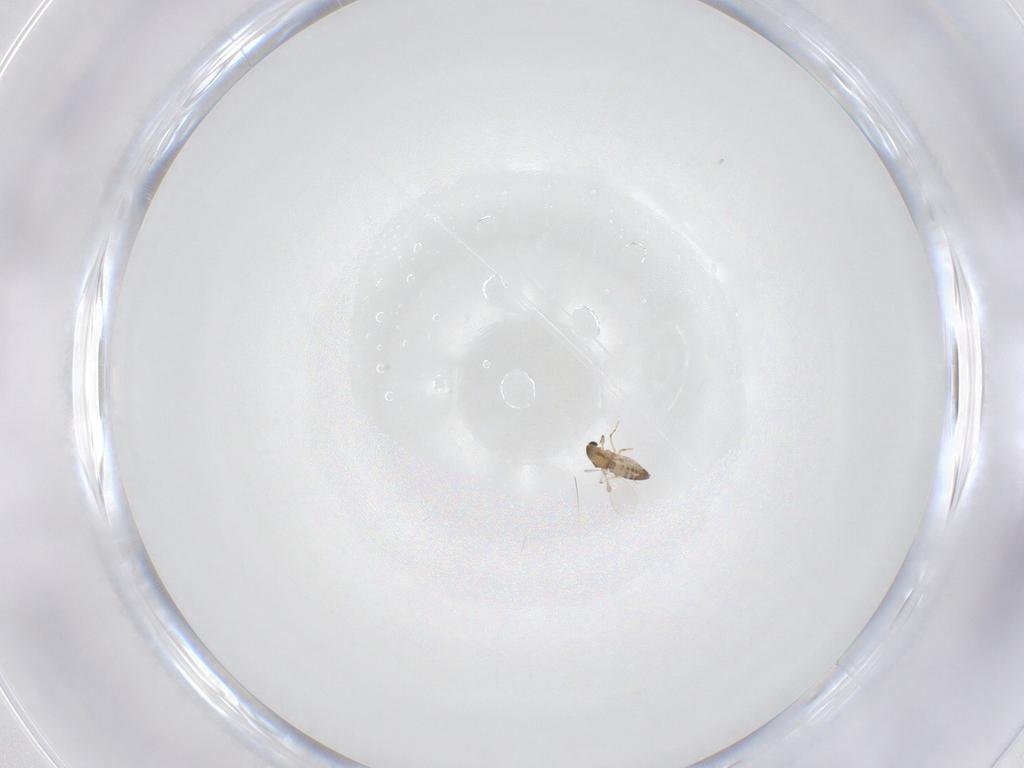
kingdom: Animalia
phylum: Arthropoda
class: Insecta
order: Diptera
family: Chironomidae
